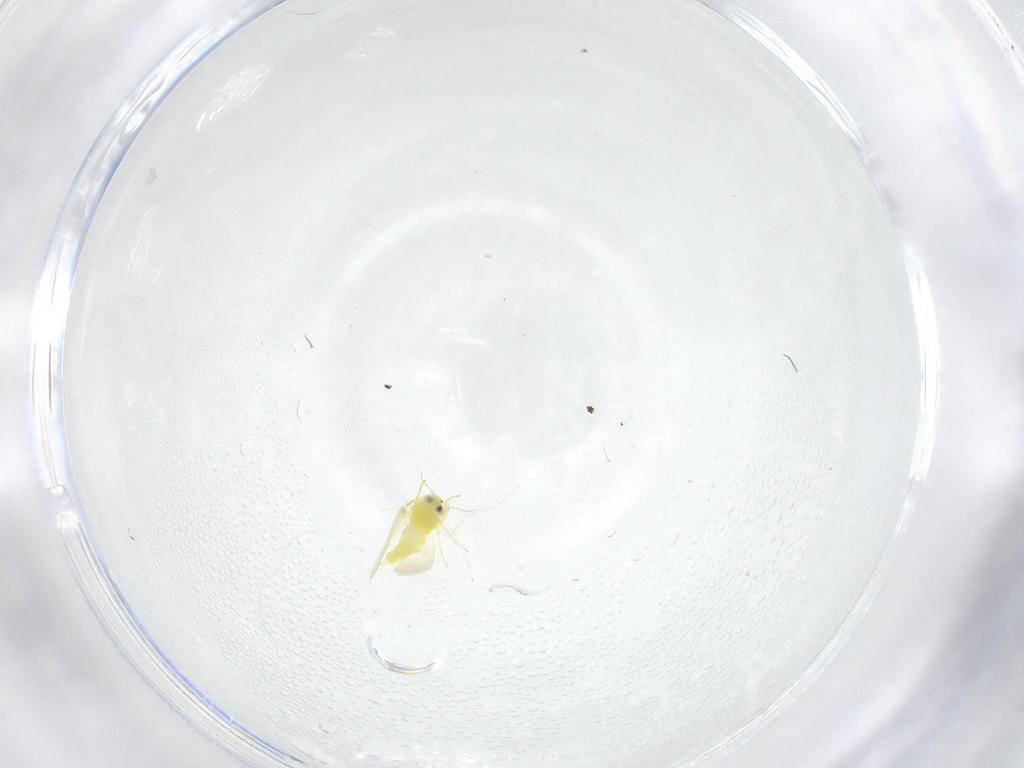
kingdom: Animalia
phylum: Arthropoda
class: Insecta
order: Hemiptera
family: Aleyrodidae
